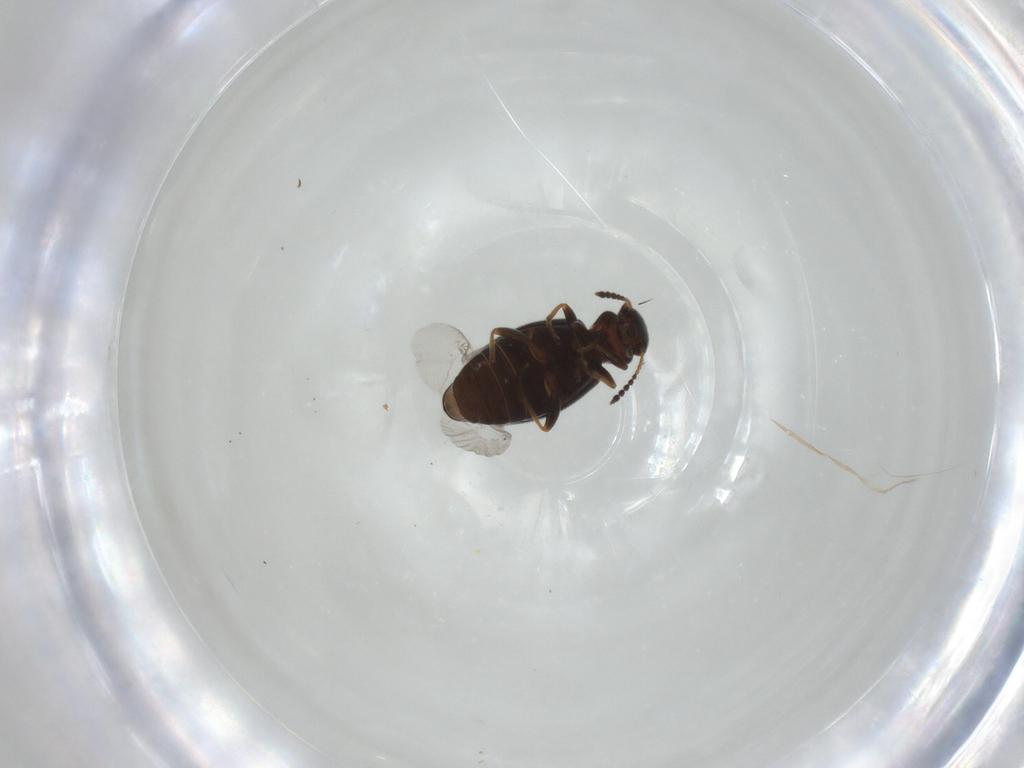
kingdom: Animalia
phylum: Arthropoda
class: Insecta
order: Coleoptera
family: Anthicidae
